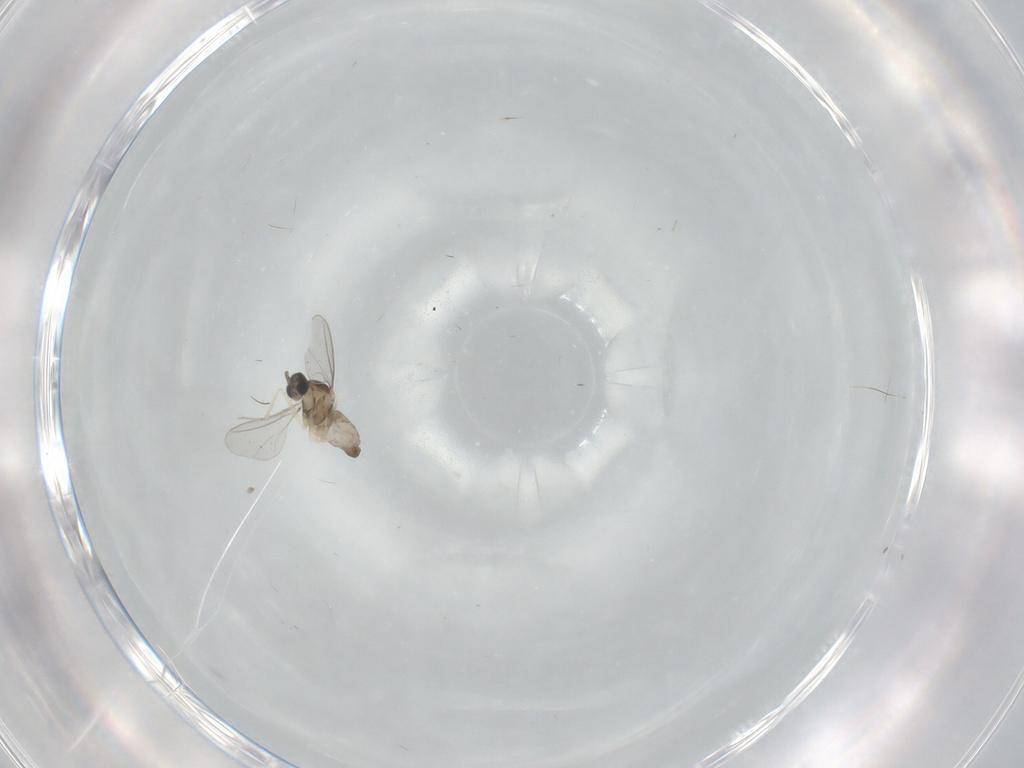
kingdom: Animalia
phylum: Arthropoda
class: Insecta
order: Diptera
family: Cecidomyiidae
